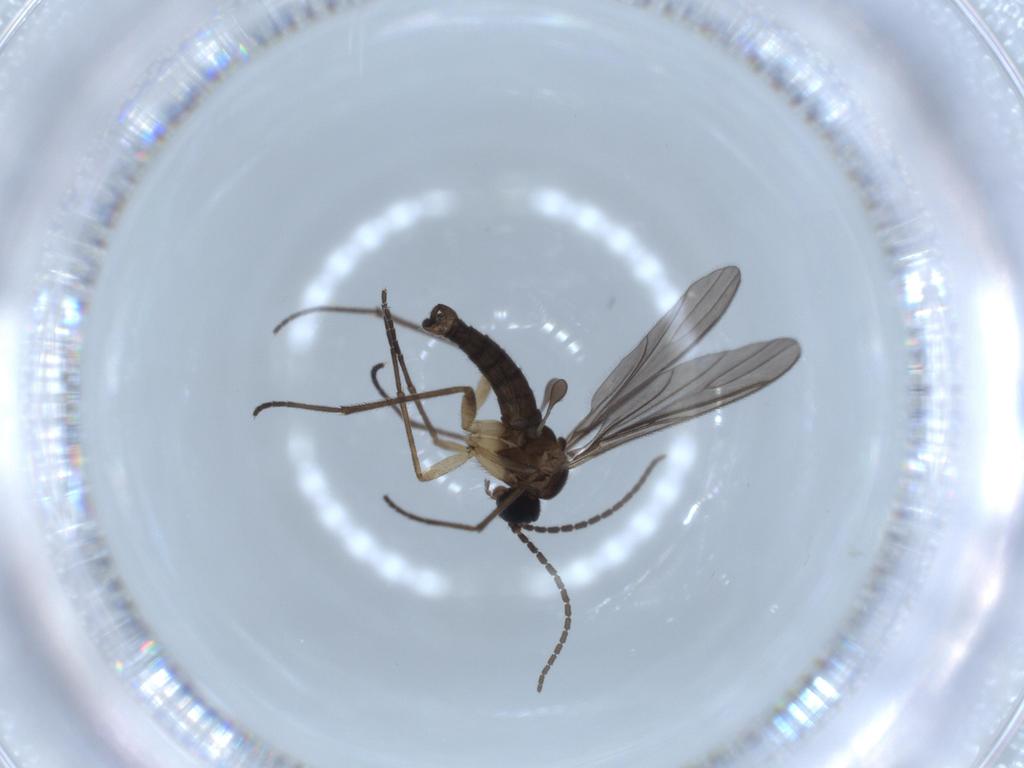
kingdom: Animalia
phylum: Arthropoda
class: Insecta
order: Diptera
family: Sciaridae
